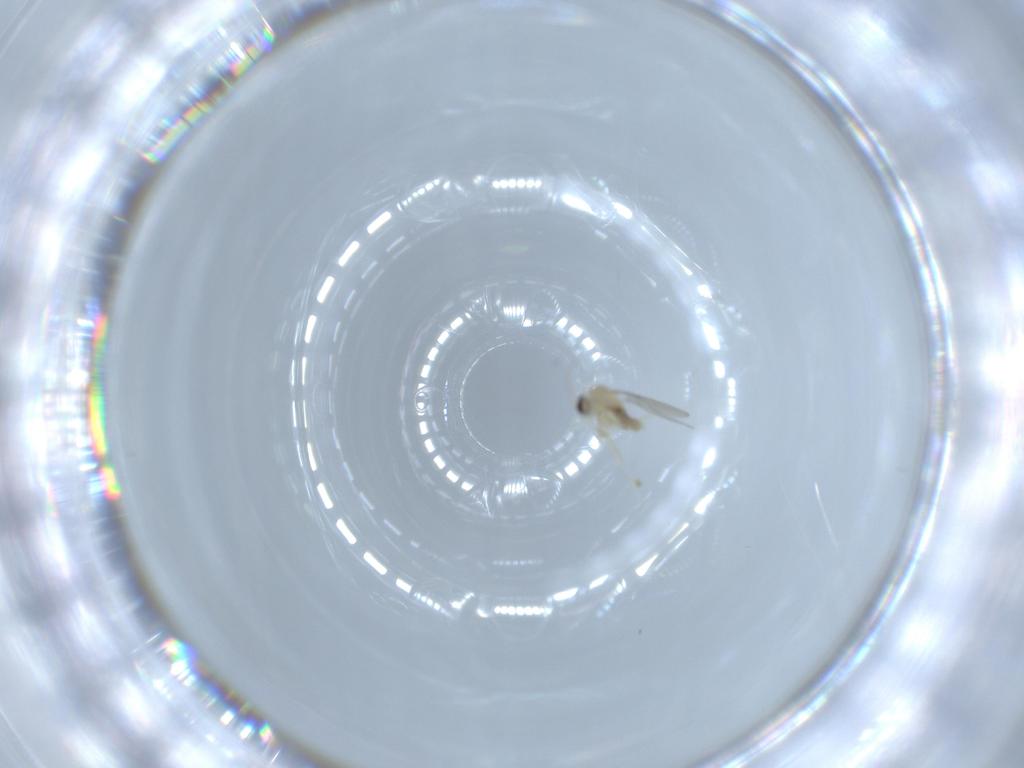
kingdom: Animalia
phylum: Arthropoda
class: Insecta
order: Diptera
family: Cecidomyiidae
